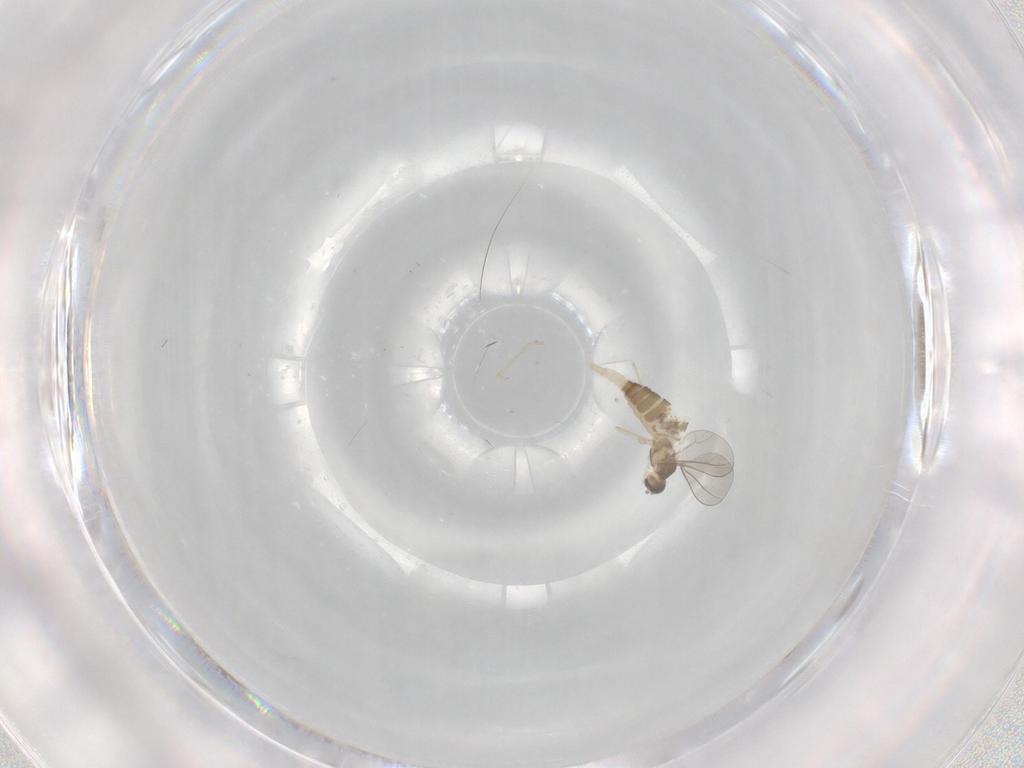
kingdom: Animalia
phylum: Arthropoda
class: Insecta
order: Diptera
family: Cecidomyiidae
